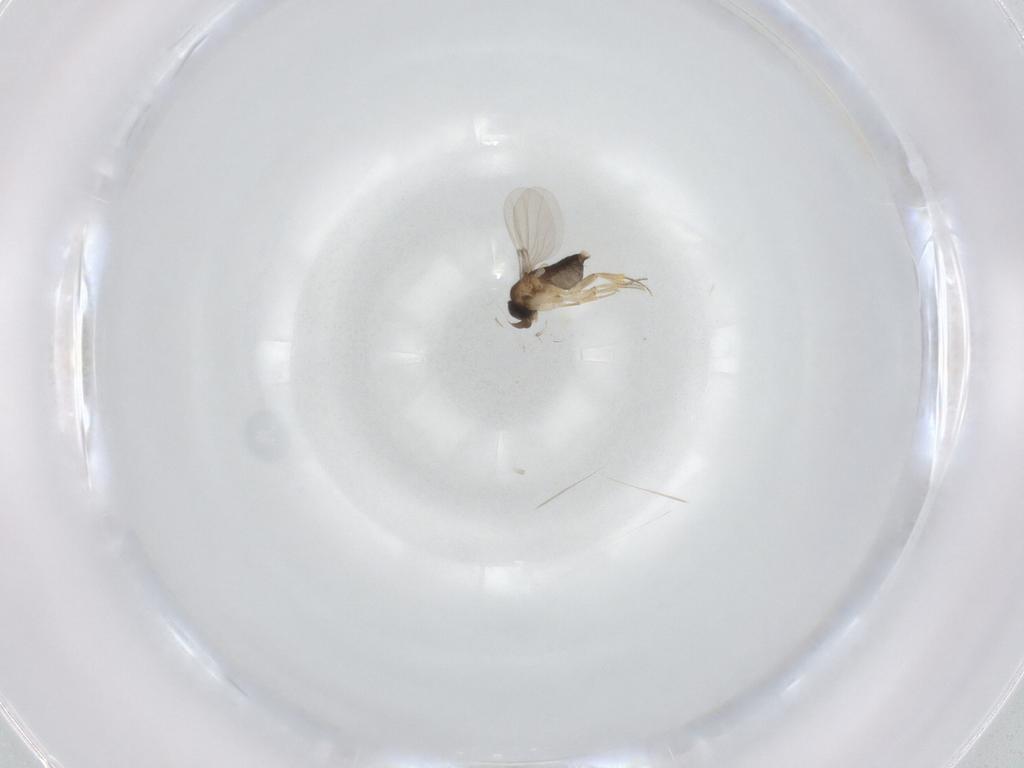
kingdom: Animalia
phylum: Arthropoda
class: Insecta
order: Diptera
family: Phoridae
